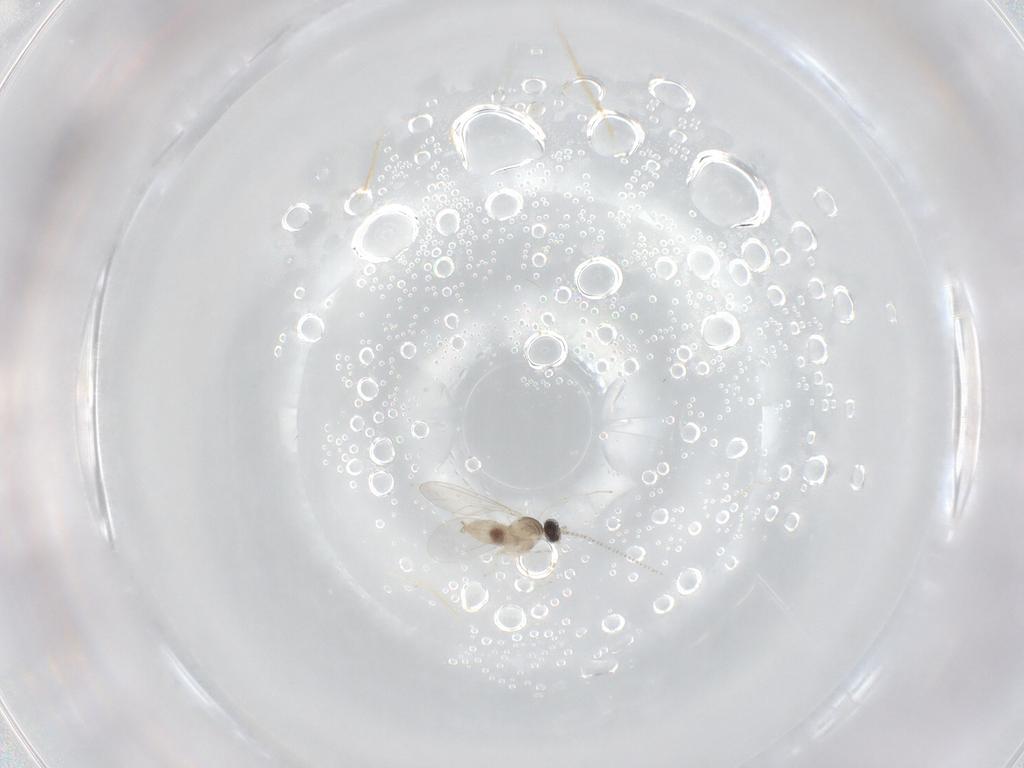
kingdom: Animalia
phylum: Arthropoda
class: Insecta
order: Diptera
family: Cecidomyiidae
